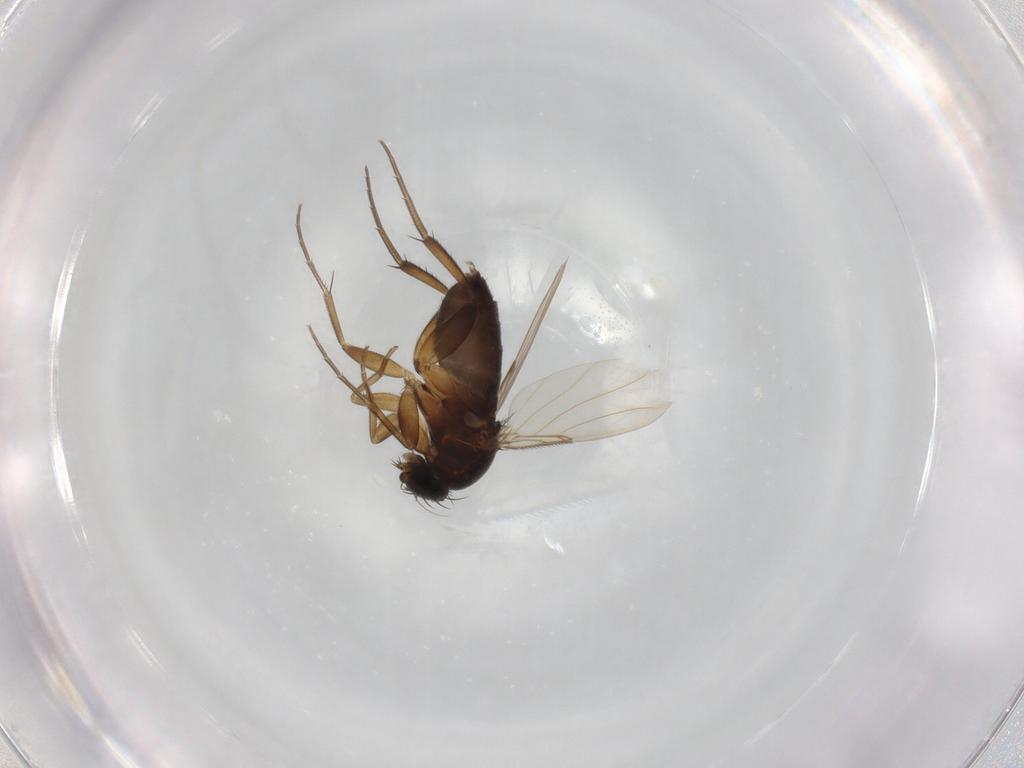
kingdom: Animalia
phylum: Arthropoda
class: Insecta
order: Diptera
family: Phoridae
